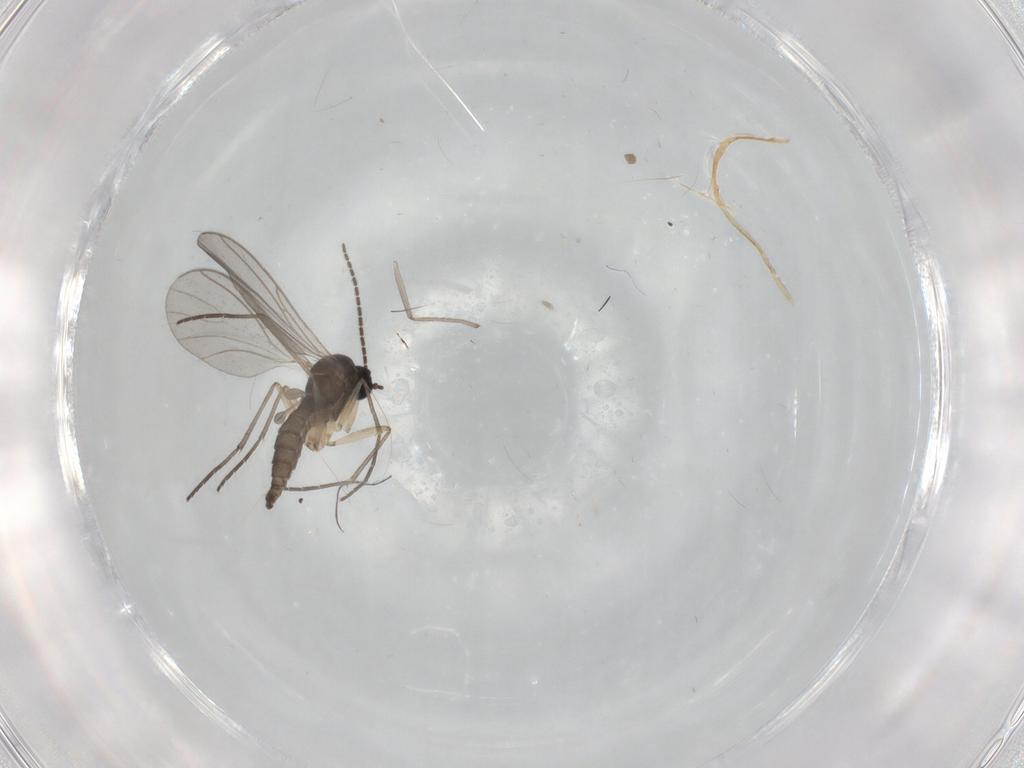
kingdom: Animalia
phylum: Arthropoda
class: Insecta
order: Diptera
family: Sciaridae
